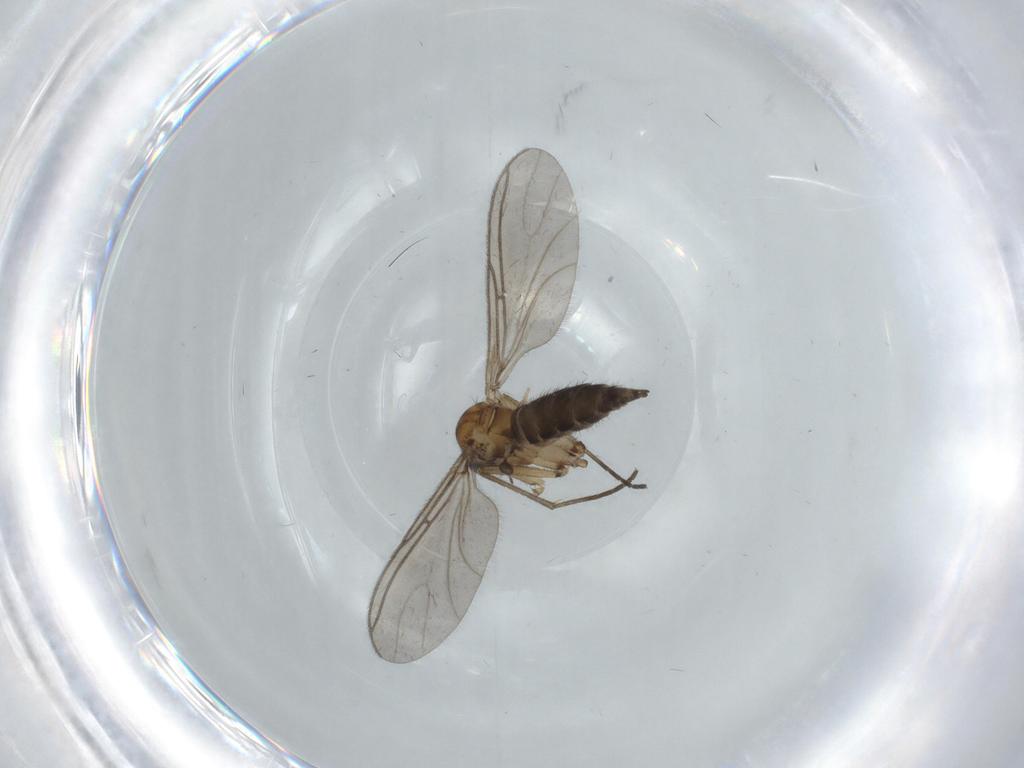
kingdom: Animalia
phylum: Arthropoda
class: Insecta
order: Diptera
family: Sciaridae
